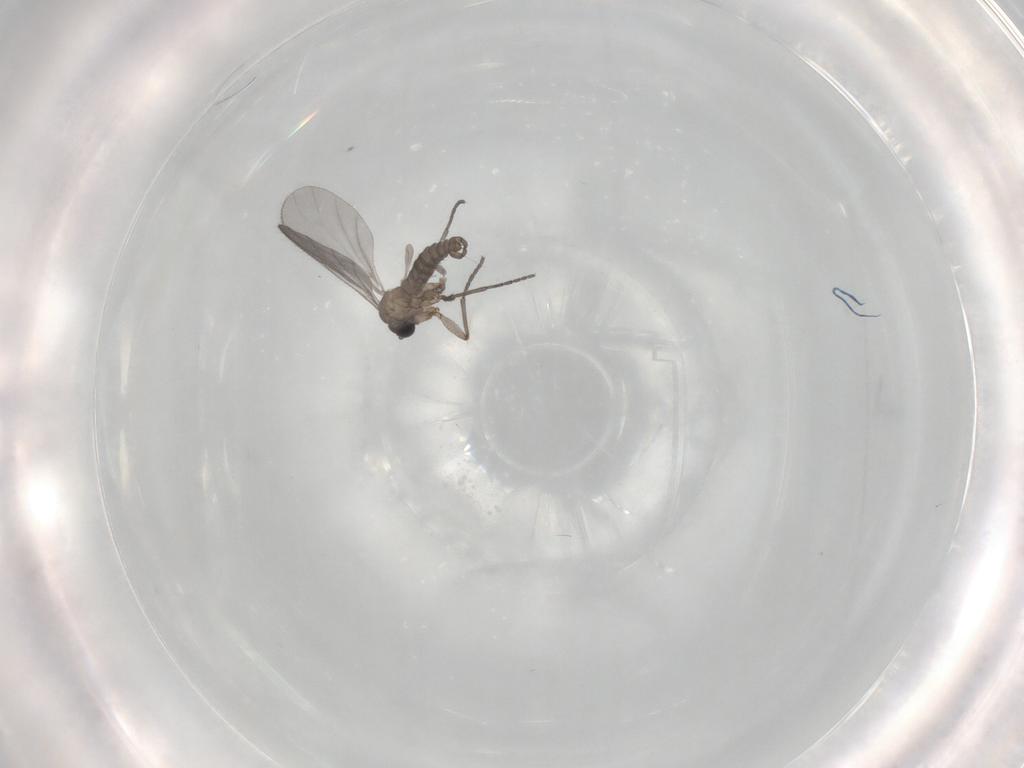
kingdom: Animalia
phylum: Arthropoda
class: Insecta
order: Diptera
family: Sciaridae
